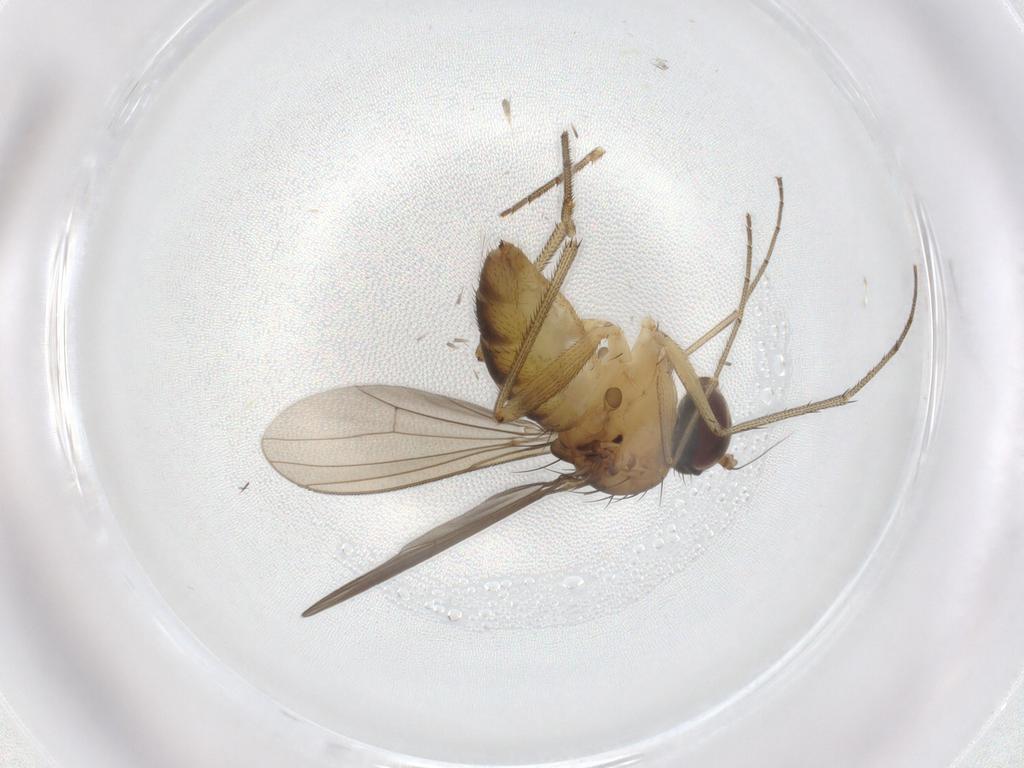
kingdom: Animalia
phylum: Arthropoda
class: Insecta
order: Diptera
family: Dolichopodidae
